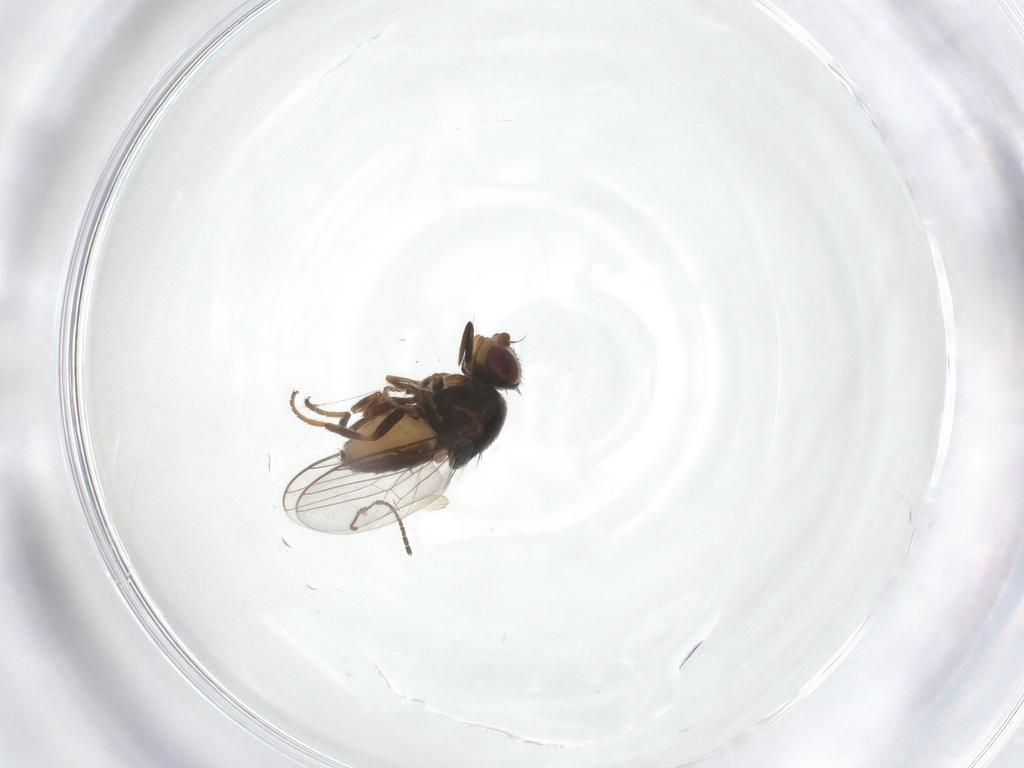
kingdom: Animalia
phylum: Arthropoda
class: Insecta
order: Diptera
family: Chloropidae
